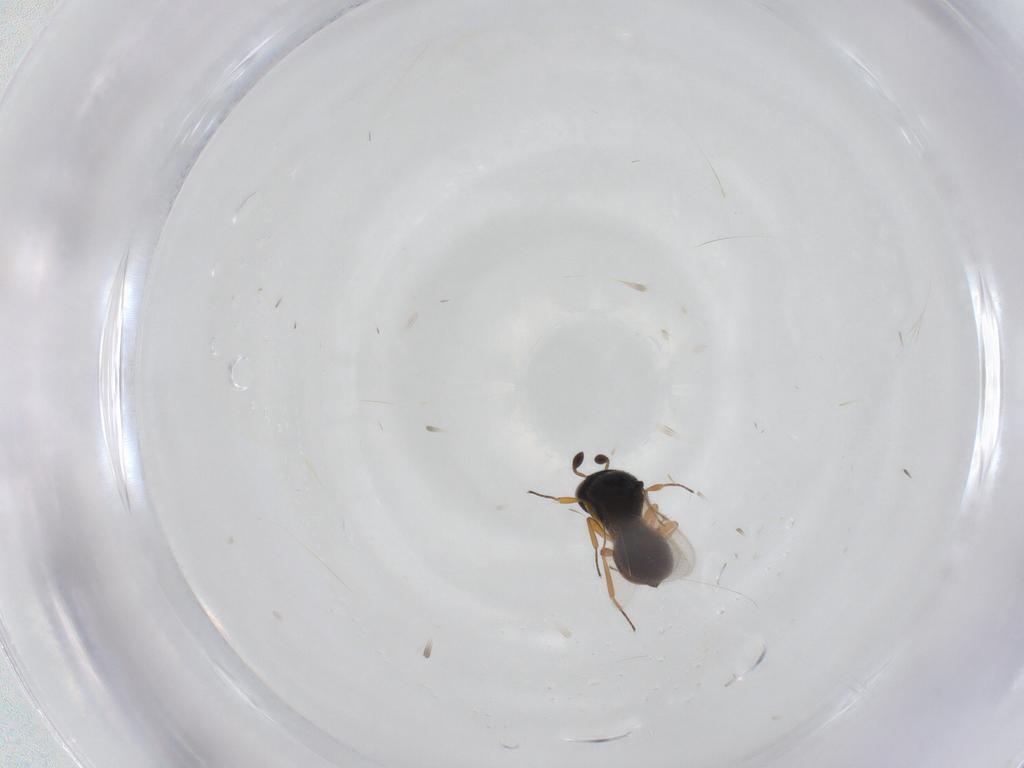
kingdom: Animalia
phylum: Arthropoda
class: Insecta
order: Hymenoptera
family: Scelionidae
